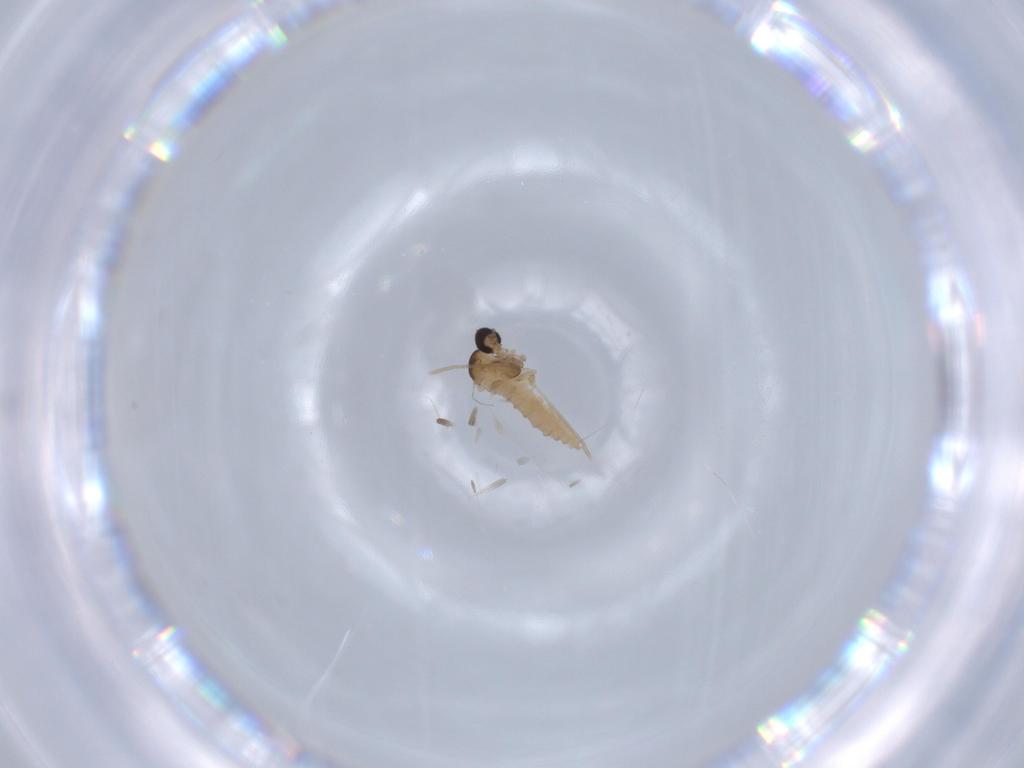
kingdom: Animalia
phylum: Arthropoda
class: Insecta
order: Diptera
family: Cecidomyiidae
